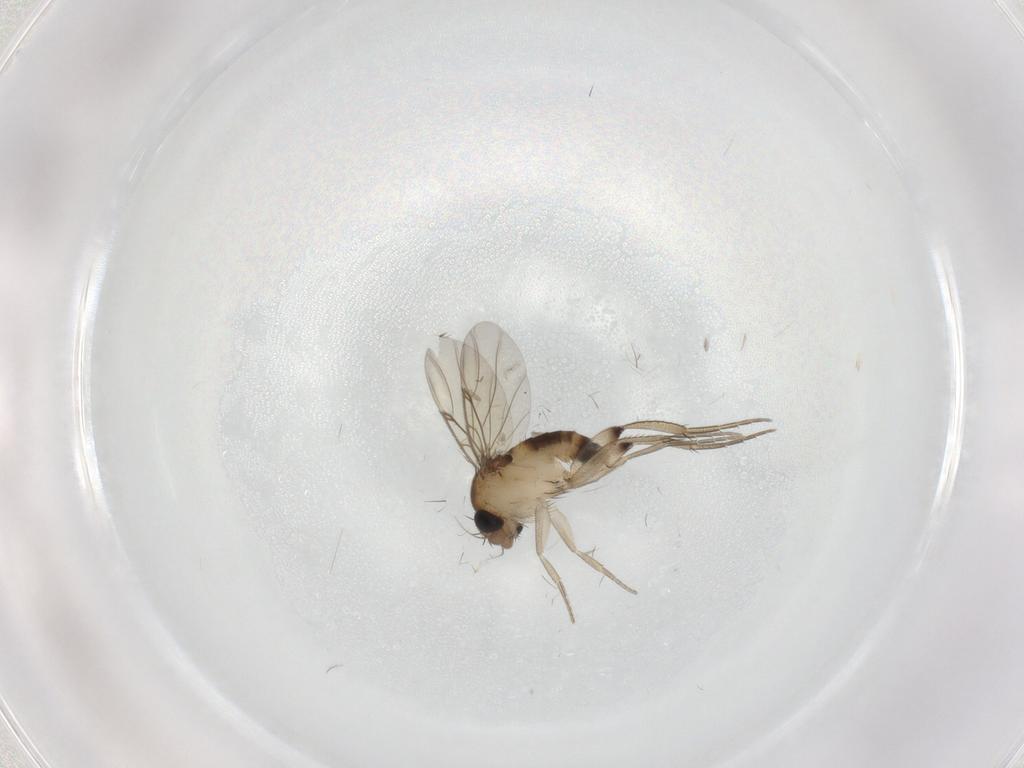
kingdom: Animalia
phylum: Arthropoda
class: Insecta
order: Diptera
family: Phoridae
